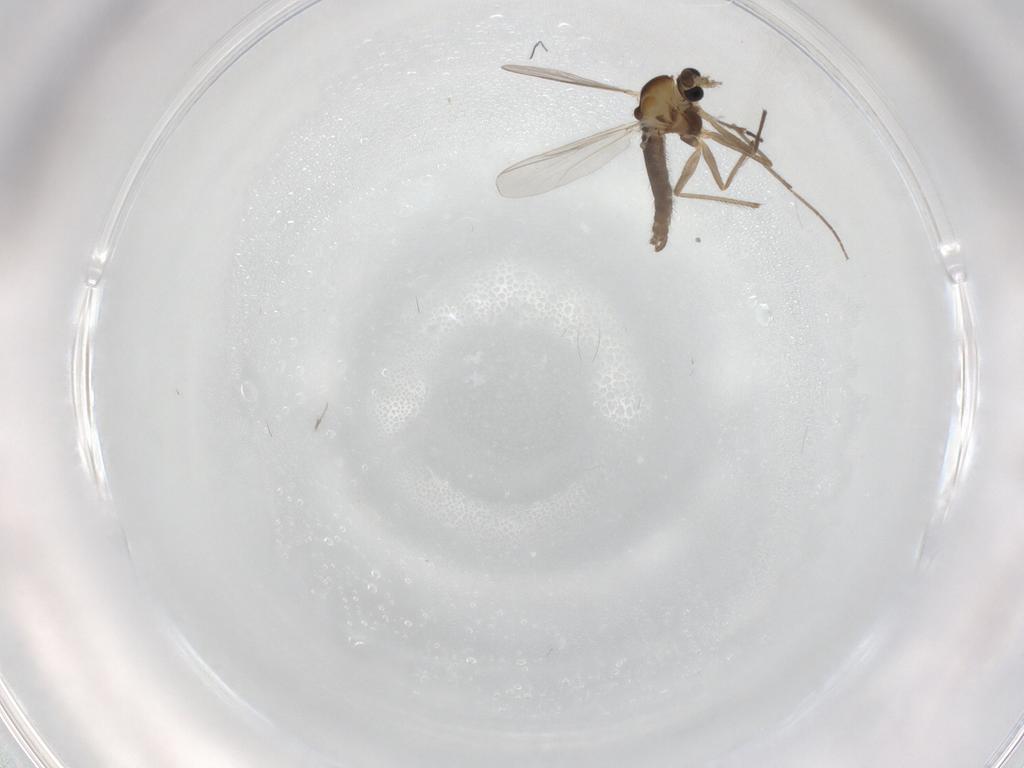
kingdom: Animalia
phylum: Arthropoda
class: Insecta
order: Diptera
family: Chironomidae
